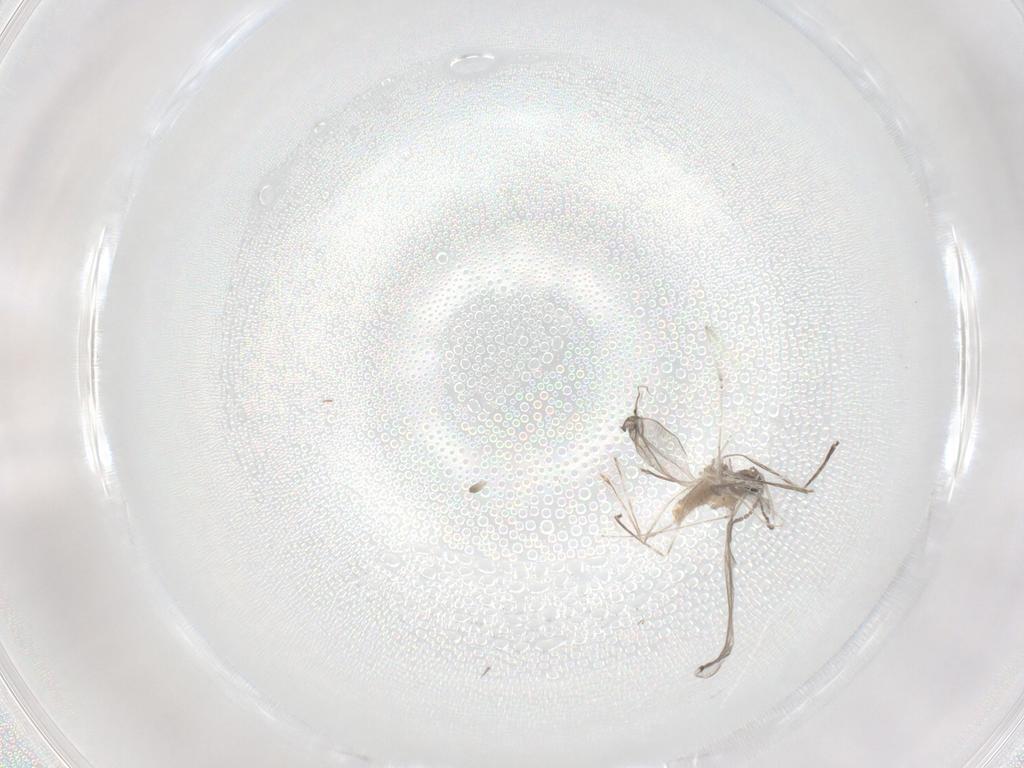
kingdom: Animalia
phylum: Arthropoda
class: Insecta
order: Diptera
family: Cecidomyiidae
